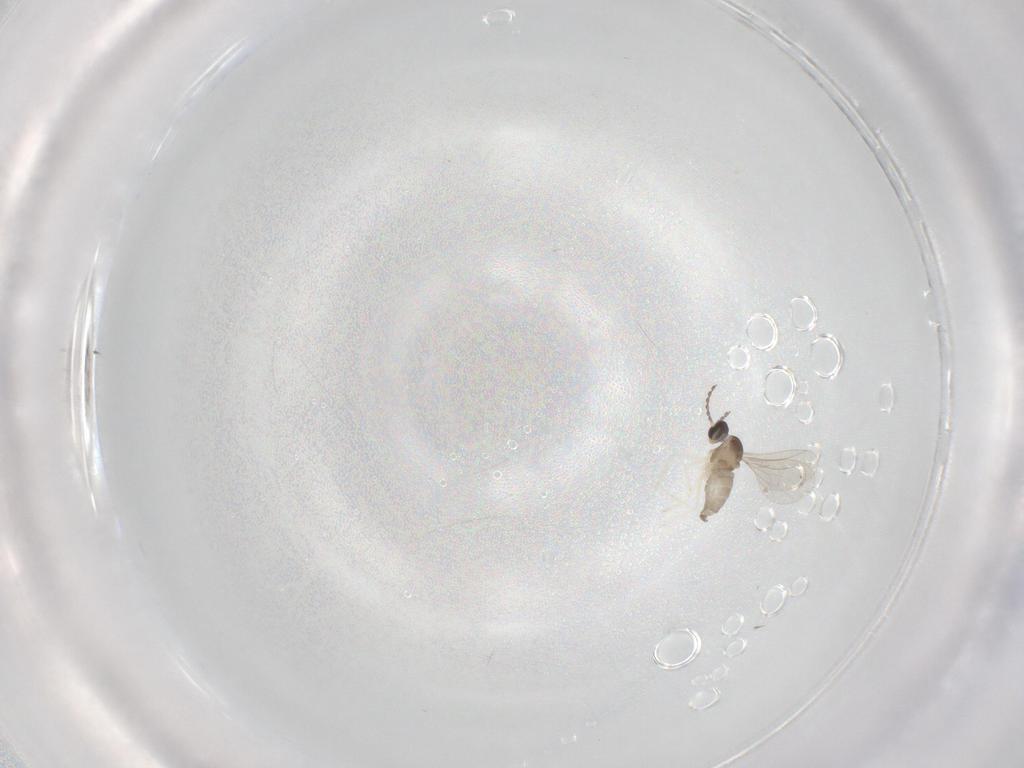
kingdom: Animalia
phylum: Arthropoda
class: Insecta
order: Diptera
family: Cecidomyiidae
